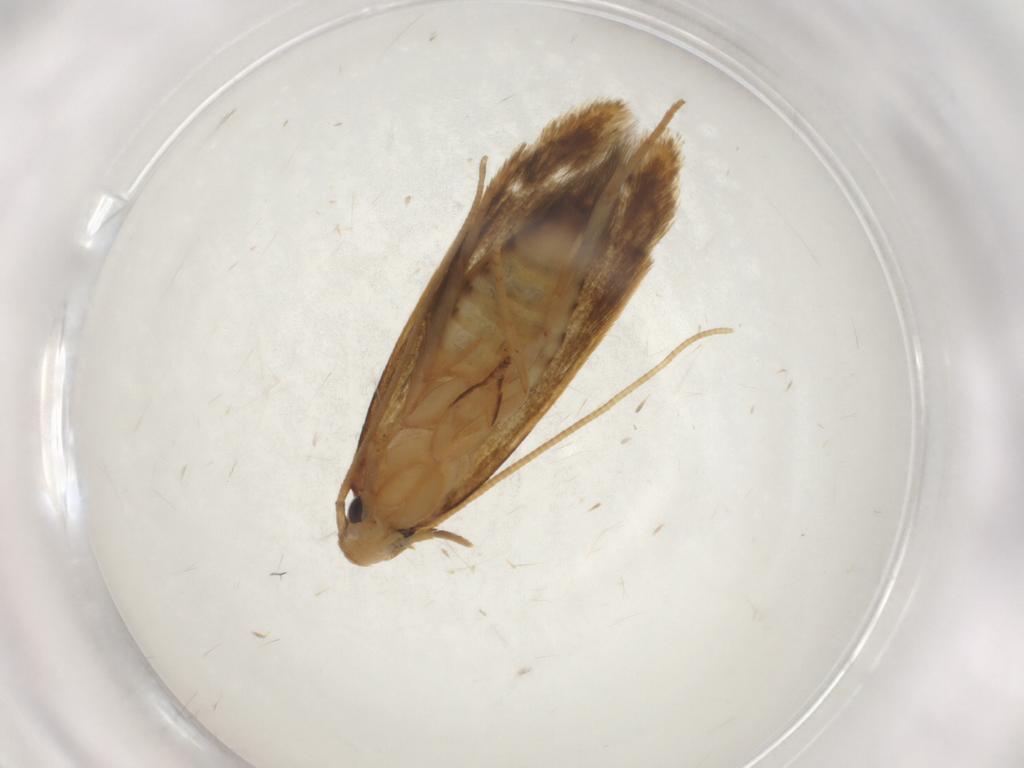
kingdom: Animalia
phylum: Arthropoda
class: Insecta
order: Lepidoptera
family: Tineidae
